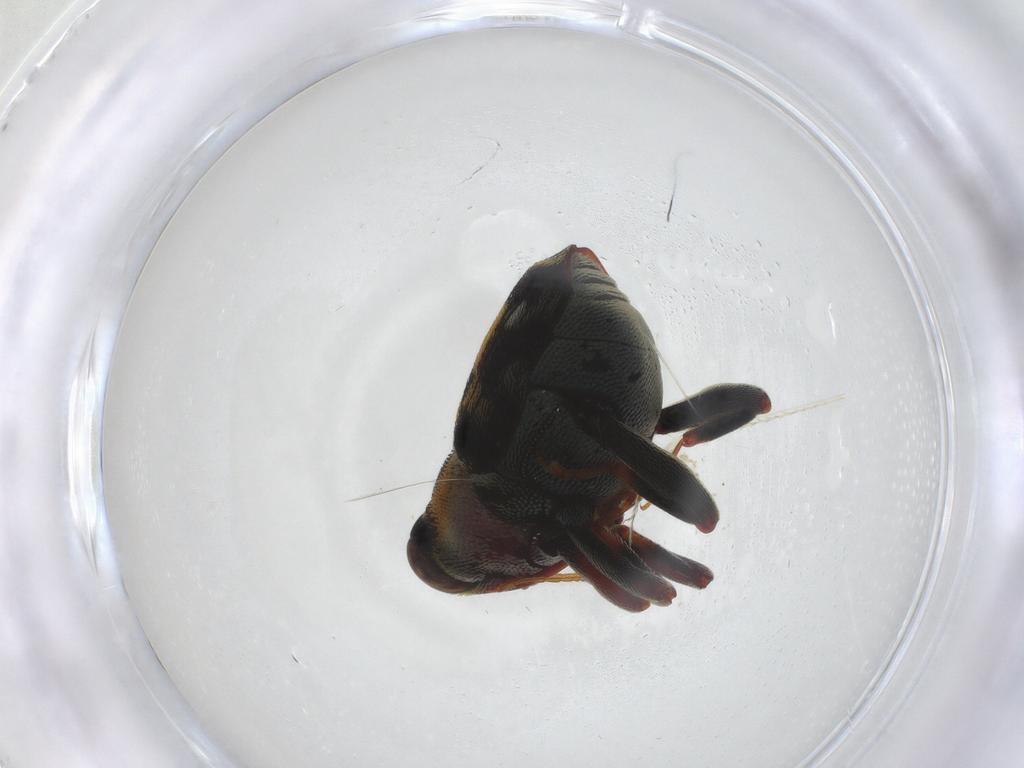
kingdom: Animalia
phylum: Arthropoda
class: Insecta
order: Coleoptera
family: Curculionidae
